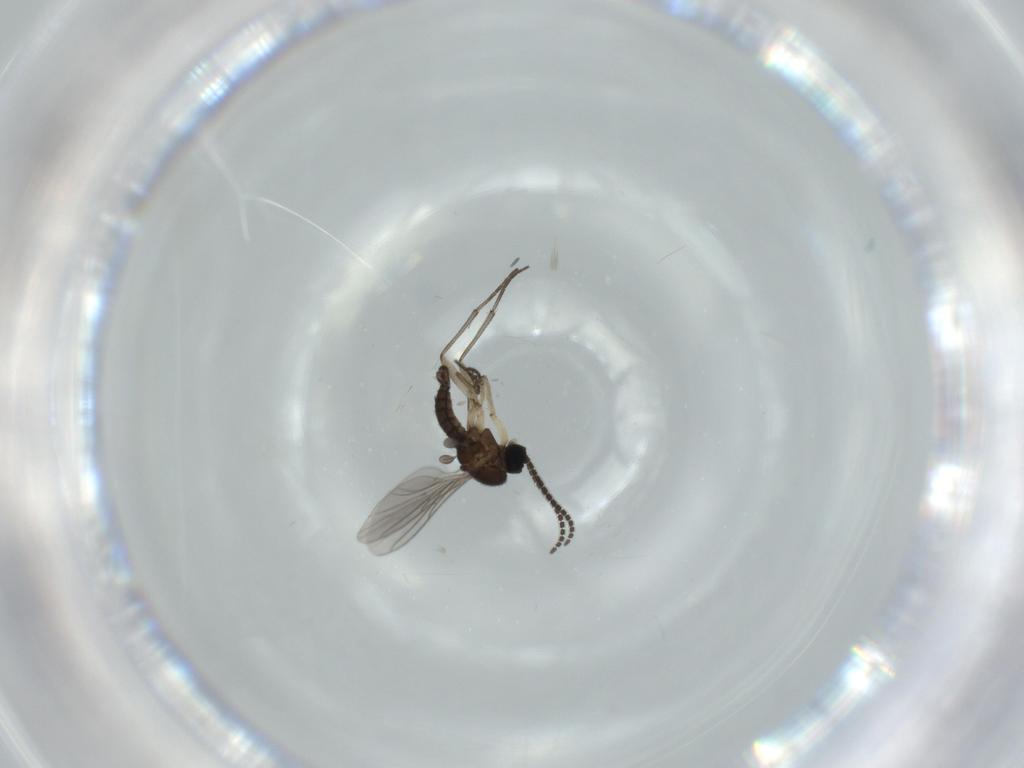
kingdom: Animalia
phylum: Arthropoda
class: Insecta
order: Diptera
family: Sciaridae
